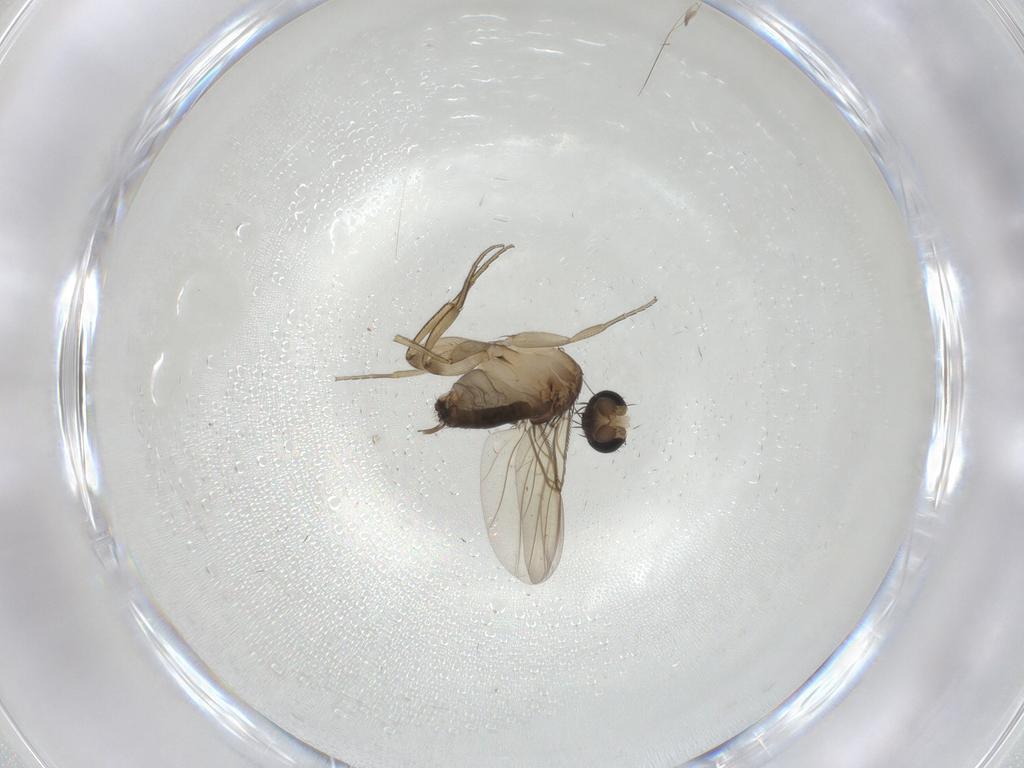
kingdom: Animalia
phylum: Arthropoda
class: Insecta
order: Diptera
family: Phoridae
